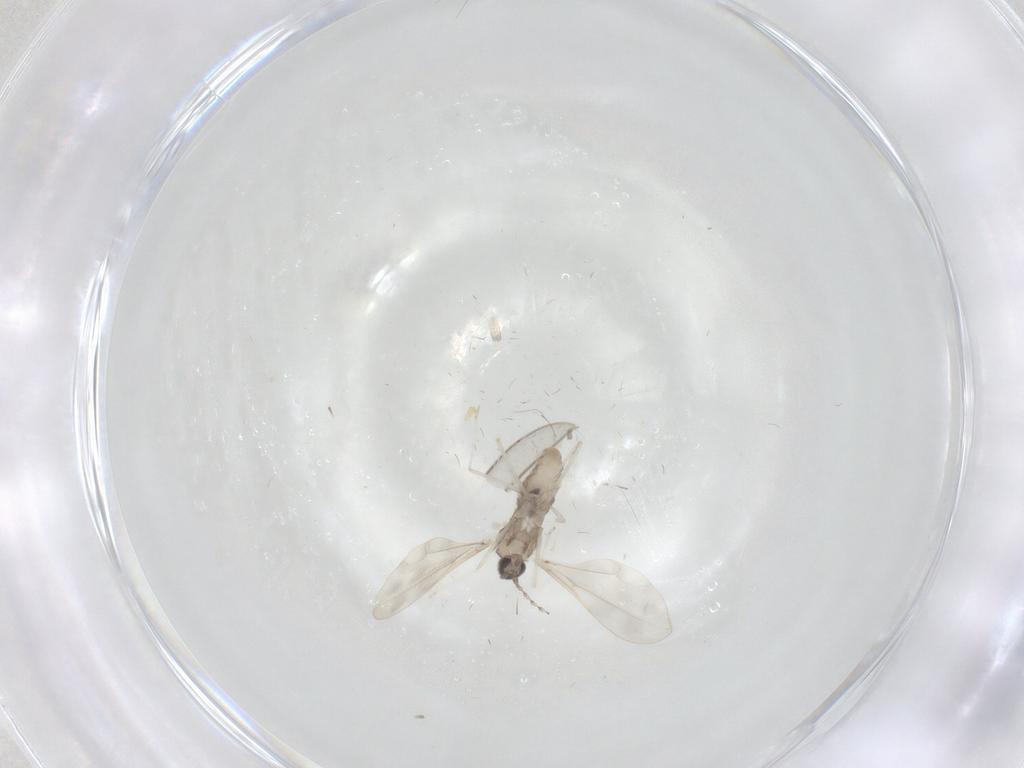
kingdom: Animalia
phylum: Arthropoda
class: Insecta
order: Diptera
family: Cecidomyiidae
